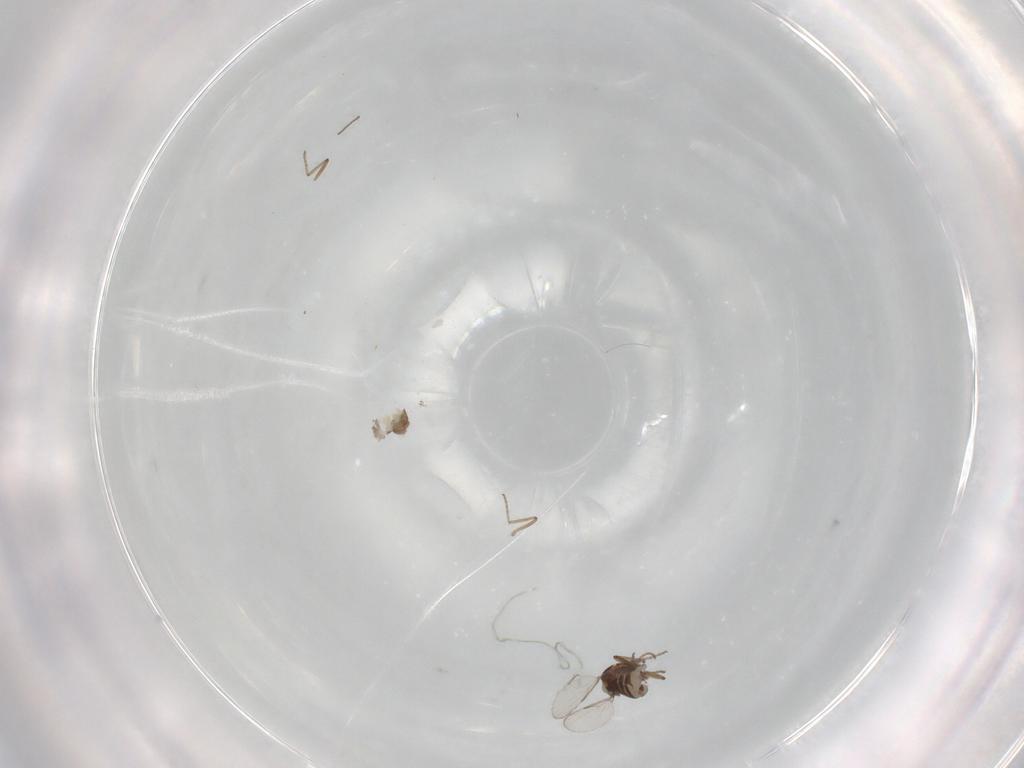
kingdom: Animalia
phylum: Arthropoda
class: Insecta
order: Diptera
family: Ceratopogonidae
